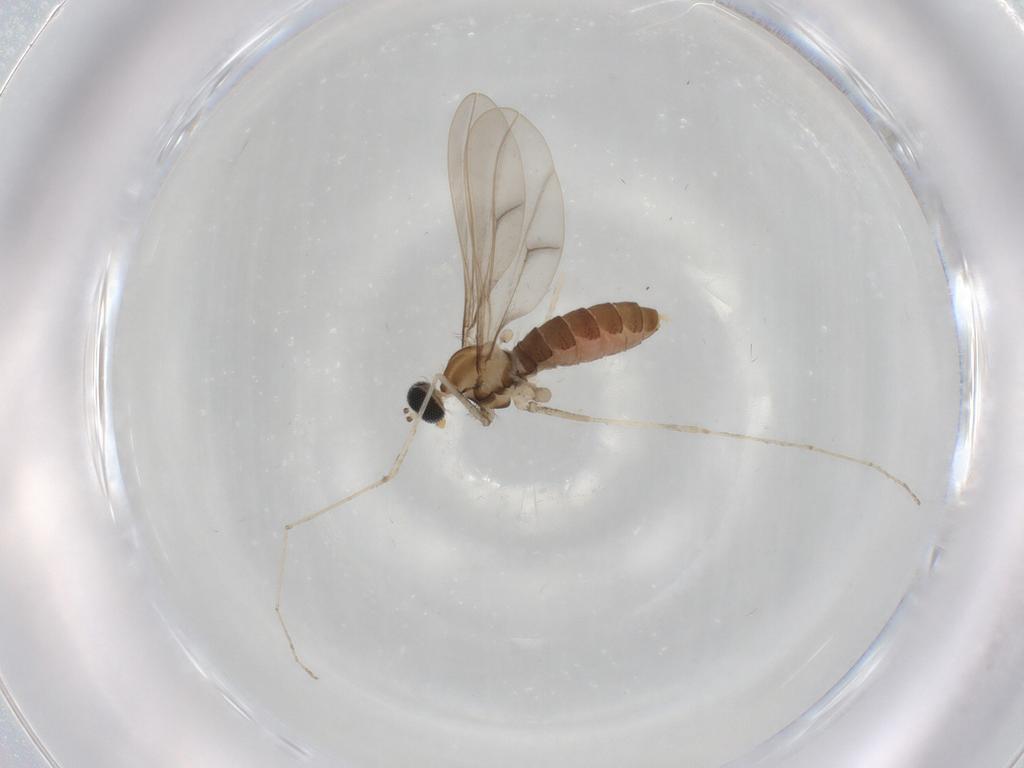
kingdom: Animalia
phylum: Arthropoda
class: Insecta
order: Diptera
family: Cecidomyiidae
